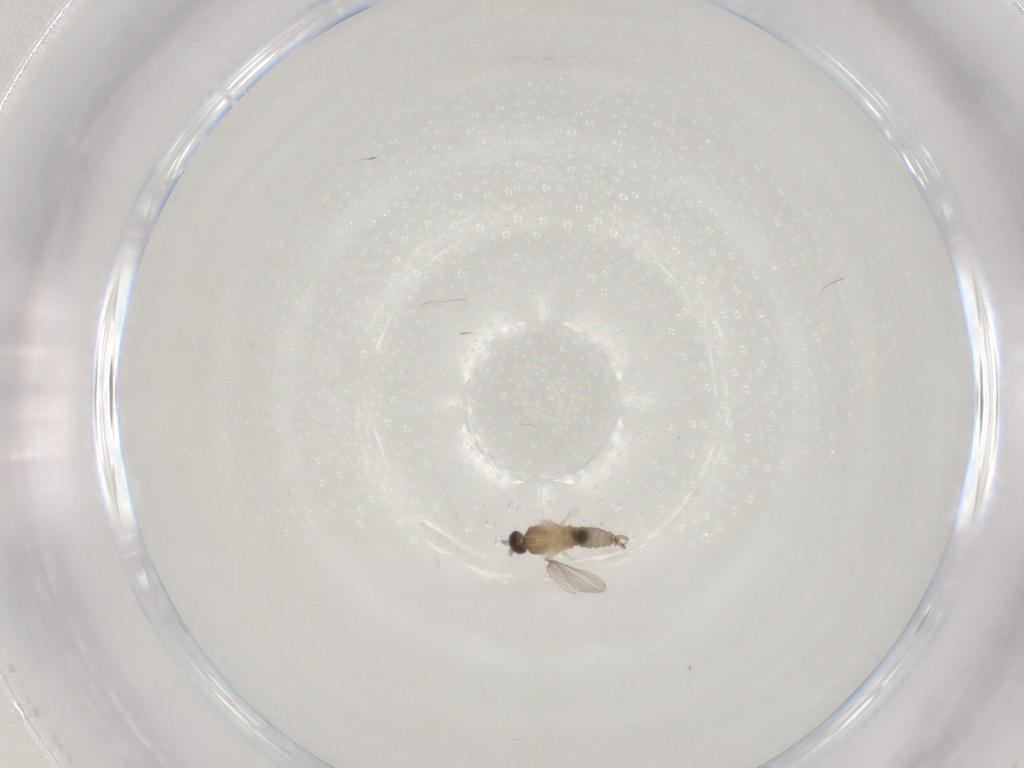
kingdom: Animalia
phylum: Arthropoda
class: Insecta
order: Diptera
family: Cecidomyiidae
